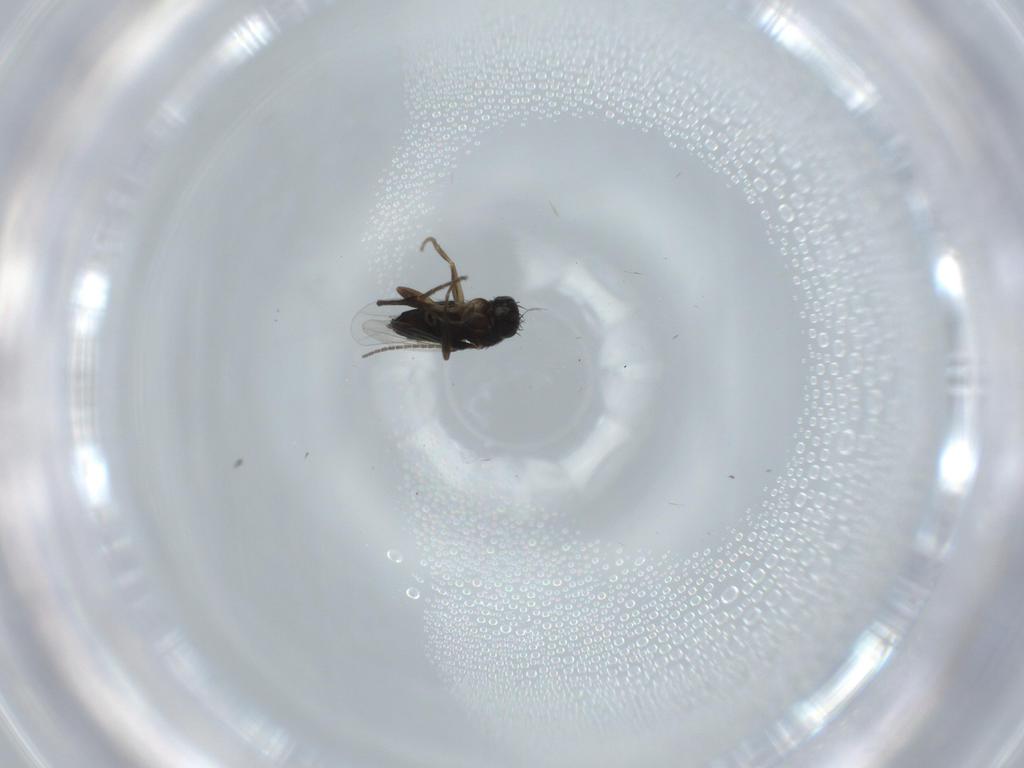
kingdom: Animalia
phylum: Arthropoda
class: Insecta
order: Diptera
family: Phoridae
